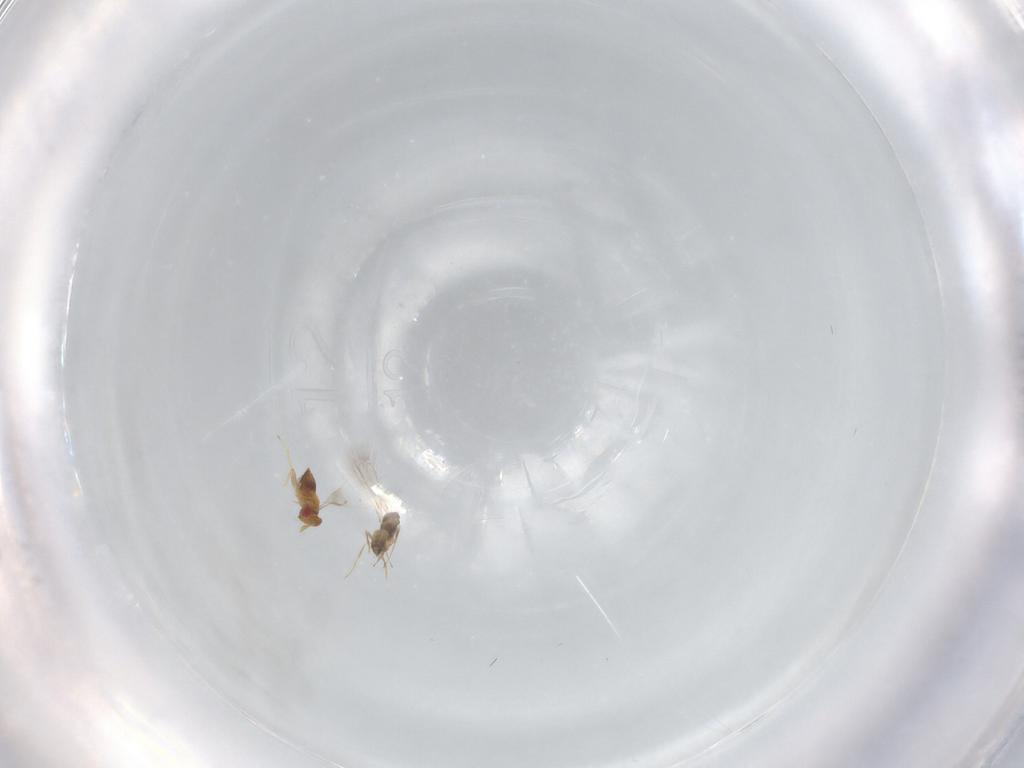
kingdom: Animalia
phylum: Arthropoda
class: Insecta
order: Hymenoptera
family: Trichogrammatidae
